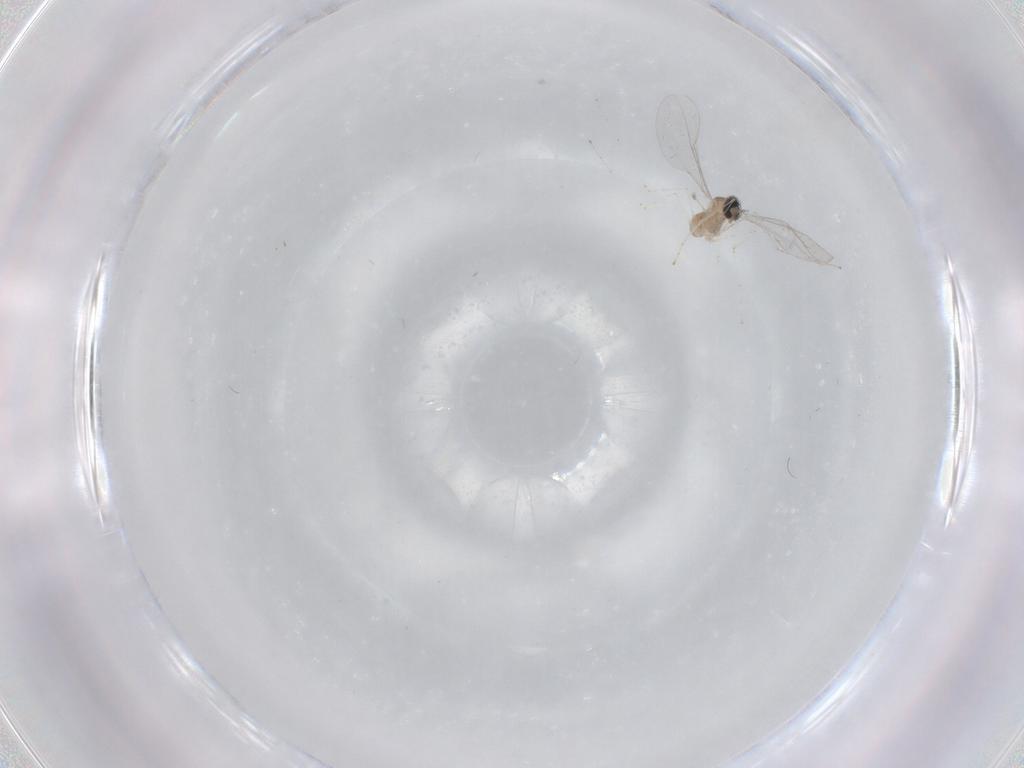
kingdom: Animalia
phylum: Arthropoda
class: Insecta
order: Diptera
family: Cecidomyiidae
